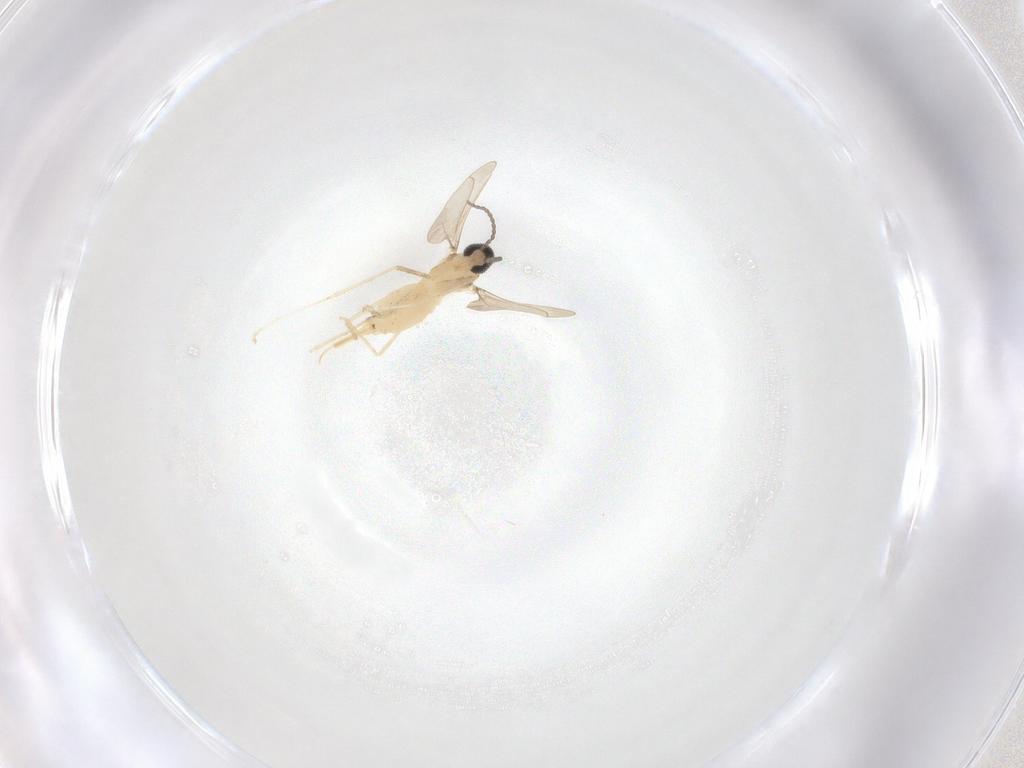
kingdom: Animalia
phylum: Arthropoda
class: Insecta
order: Diptera
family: Cecidomyiidae
